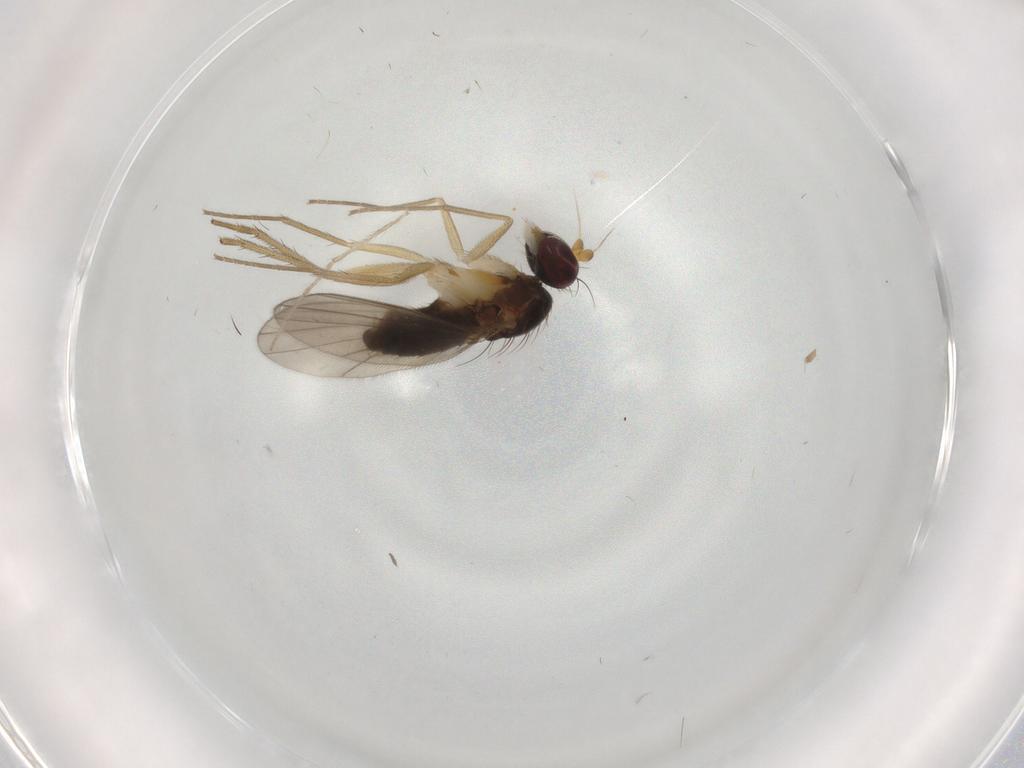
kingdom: Animalia
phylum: Arthropoda
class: Insecta
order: Diptera
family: Dolichopodidae
